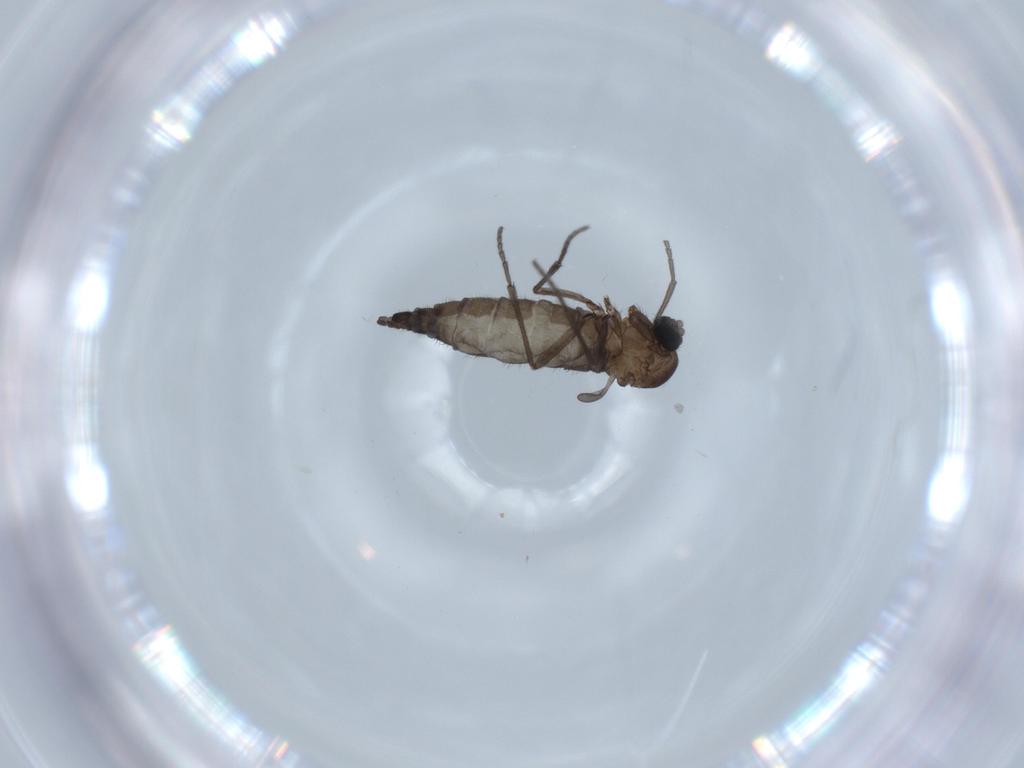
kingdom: Animalia
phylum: Arthropoda
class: Insecta
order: Diptera
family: Sciaridae
